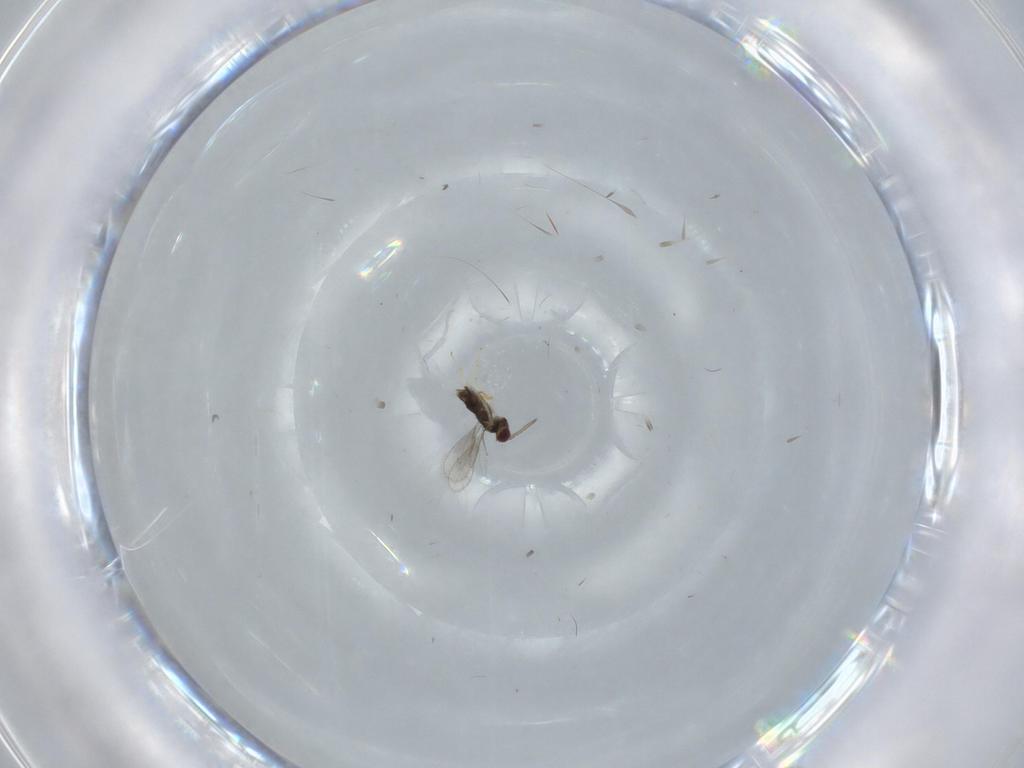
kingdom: Animalia
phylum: Arthropoda
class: Insecta
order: Hymenoptera
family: Aphelinidae
